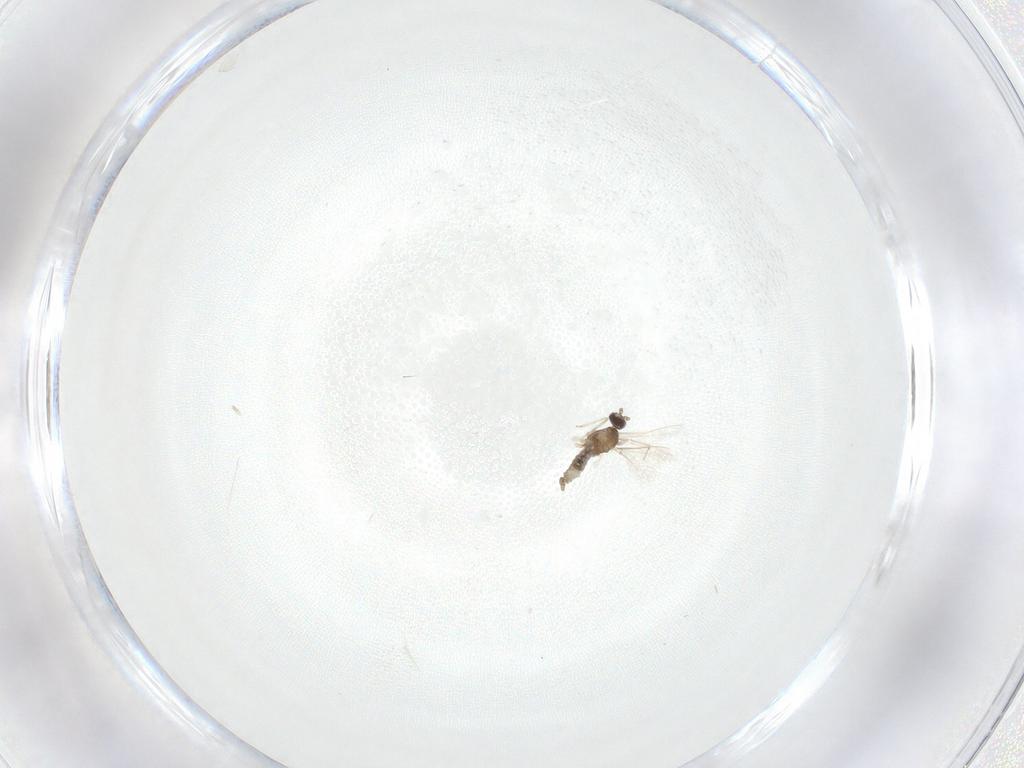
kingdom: Animalia
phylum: Arthropoda
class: Insecta
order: Diptera
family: Cecidomyiidae
